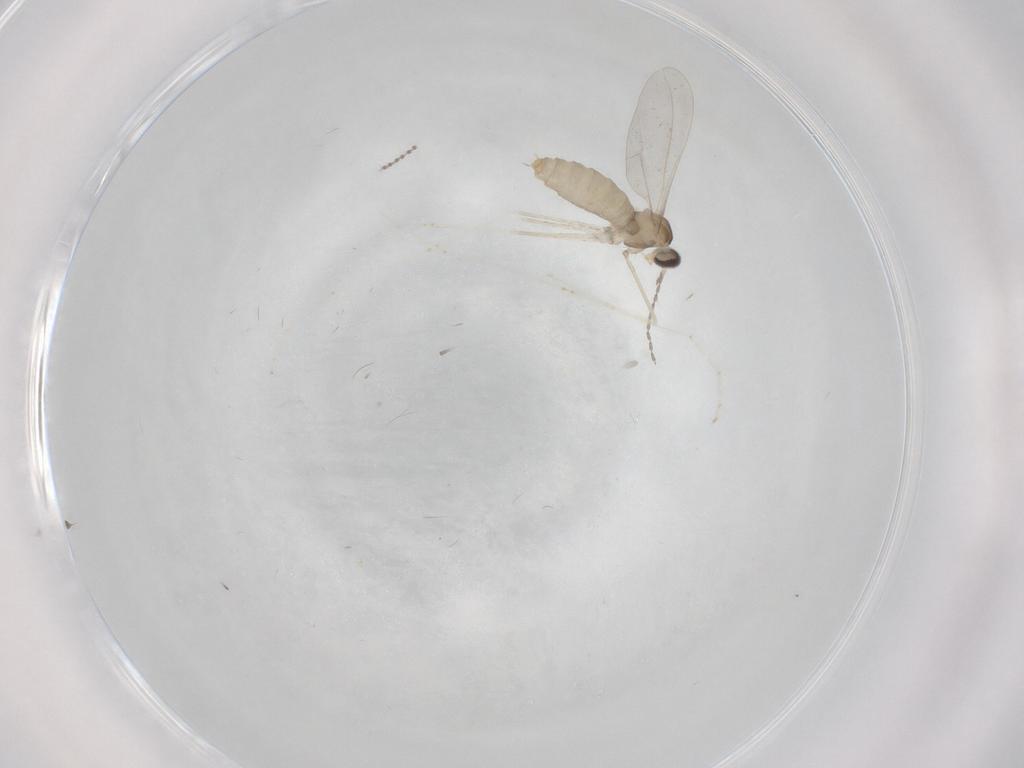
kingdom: Animalia
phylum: Arthropoda
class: Insecta
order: Diptera
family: Cecidomyiidae
